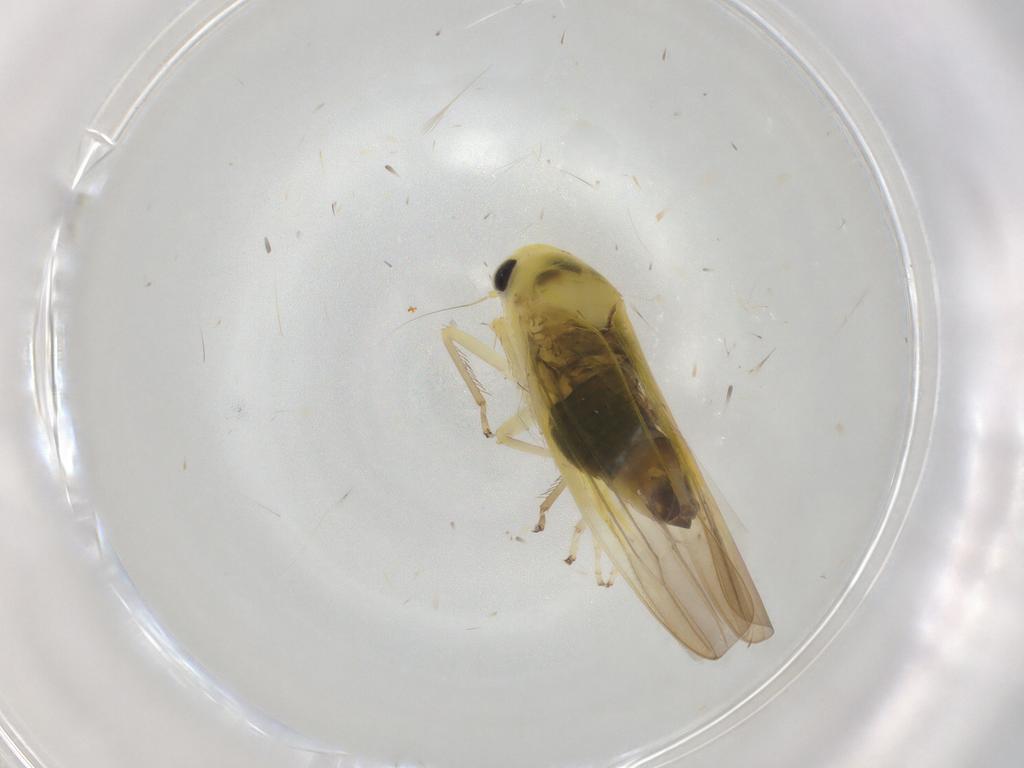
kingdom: Animalia
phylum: Arthropoda
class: Insecta
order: Hemiptera
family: Cicadellidae
